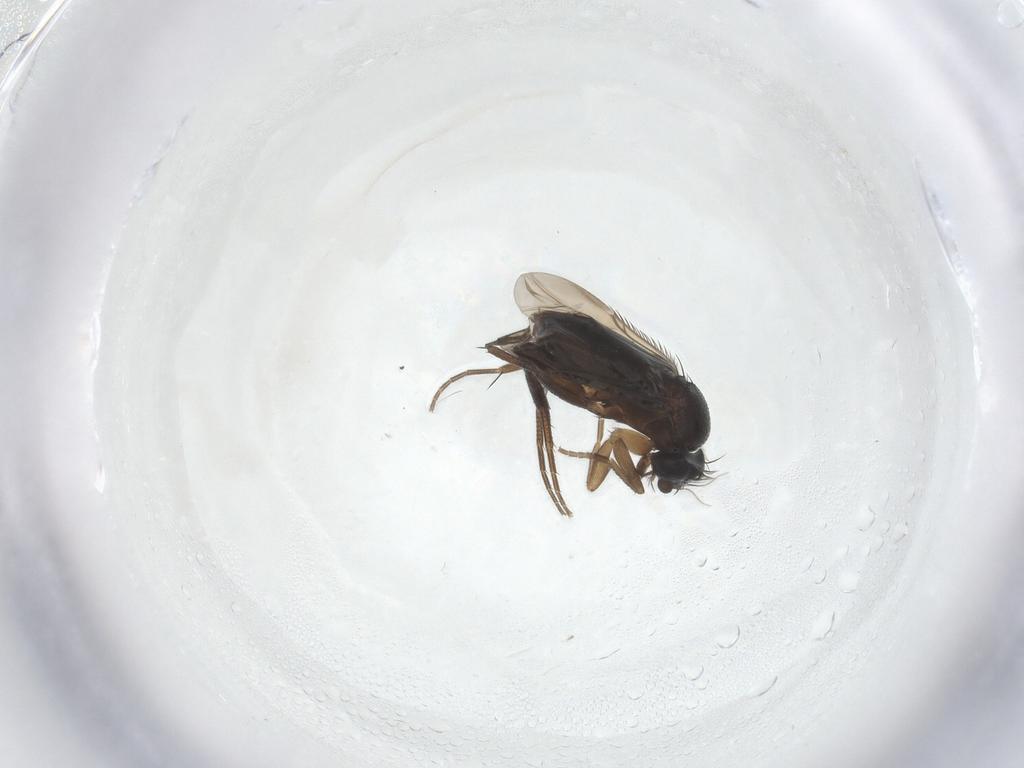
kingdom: Animalia
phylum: Arthropoda
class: Insecta
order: Diptera
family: Phoridae
